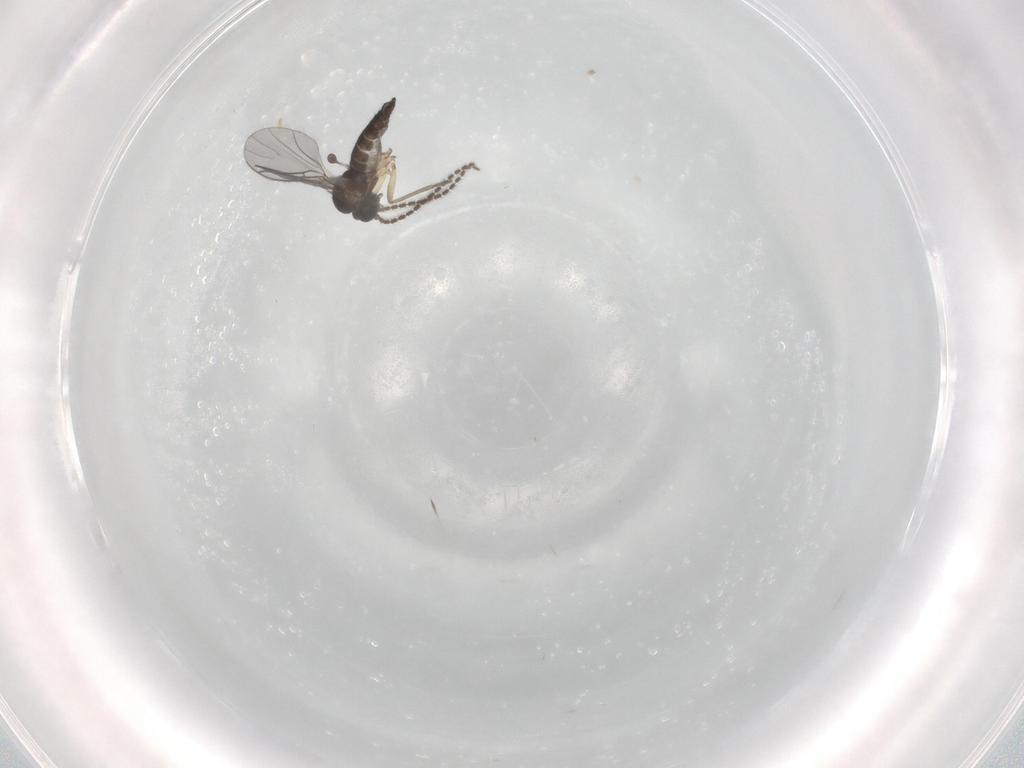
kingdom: Animalia
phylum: Arthropoda
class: Insecta
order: Diptera
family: Sciaridae
